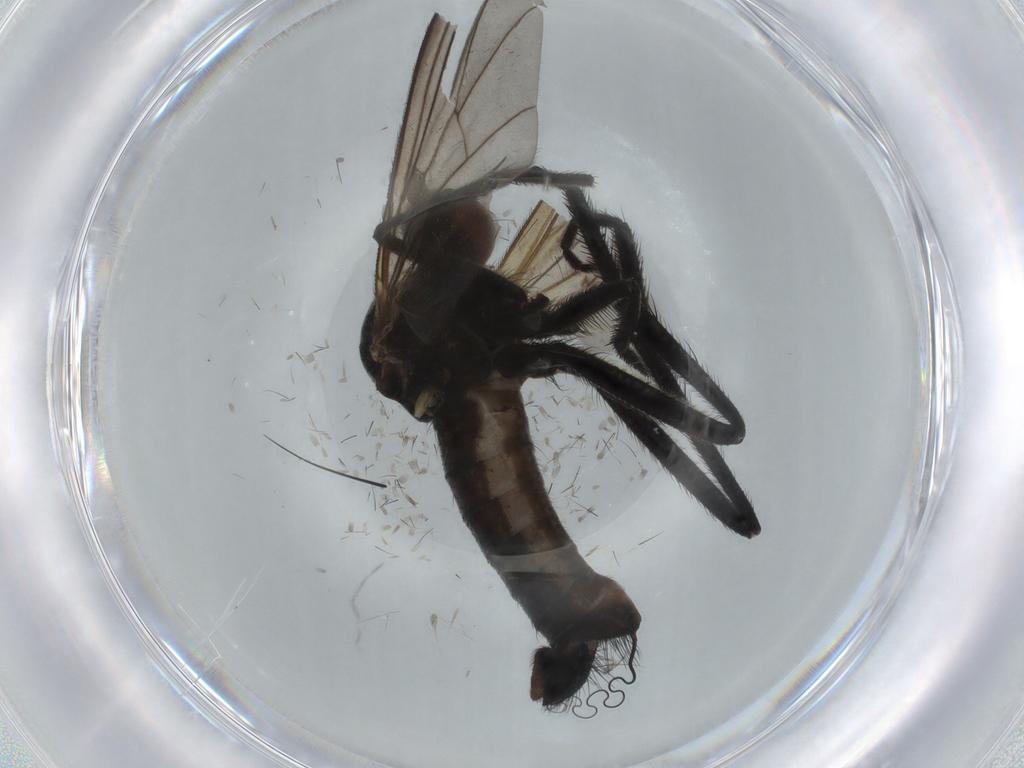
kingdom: Animalia
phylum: Arthropoda
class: Insecta
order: Diptera
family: Empididae
